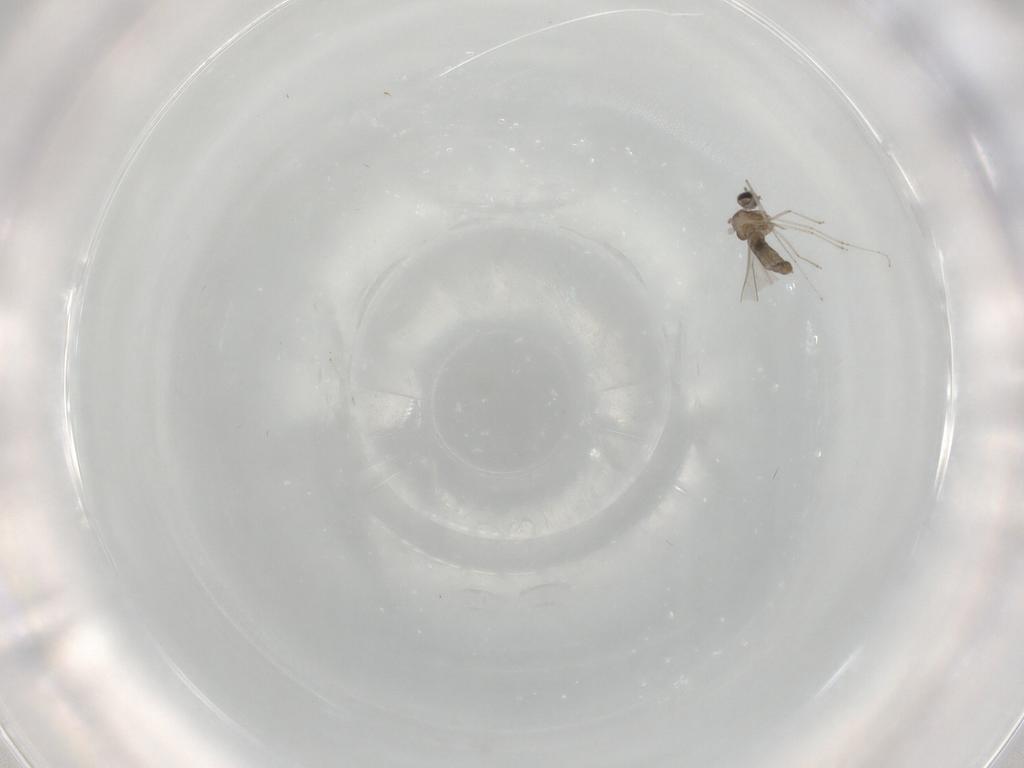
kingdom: Animalia
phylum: Arthropoda
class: Insecta
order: Diptera
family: Cecidomyiidae
